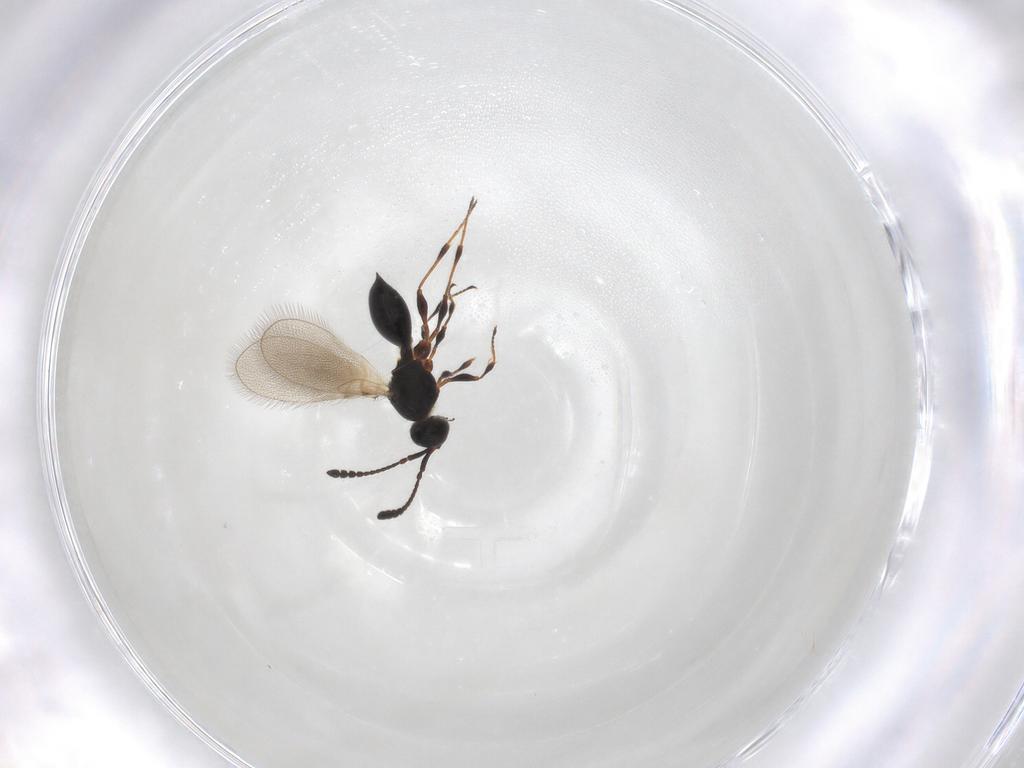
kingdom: Animalia
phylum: Arthropoda
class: Insecta
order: Hymenoptera
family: Diapriidae
